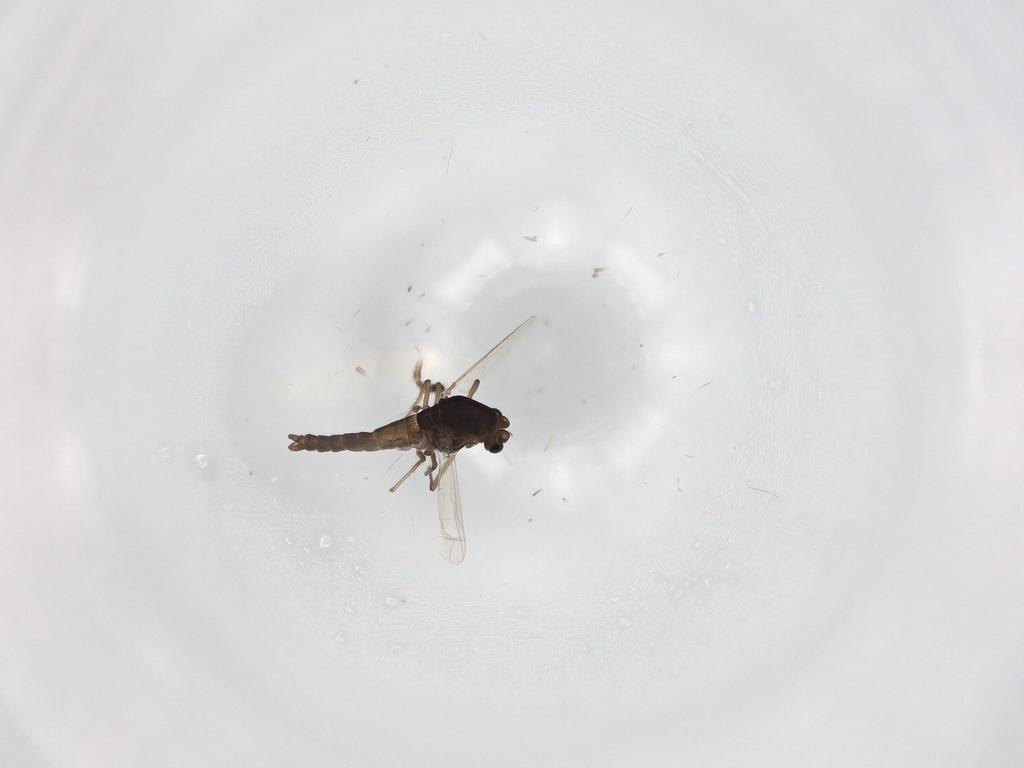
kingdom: Animalia
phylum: Arthropoda
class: Insecta
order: Diptera
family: Chironomidae
